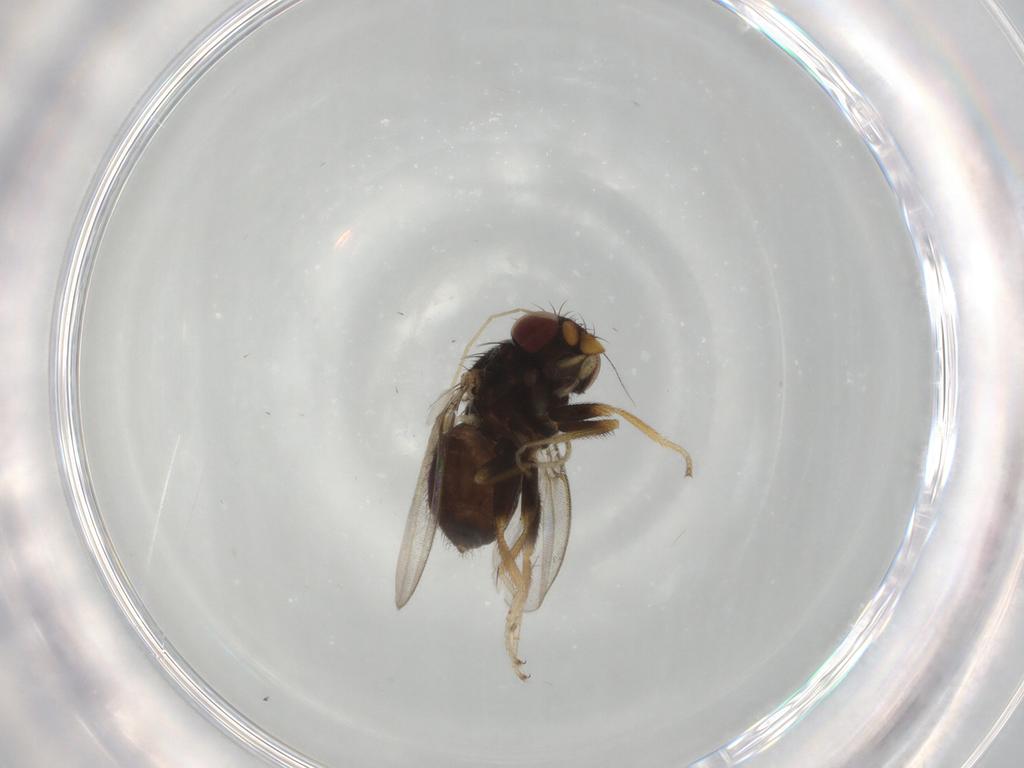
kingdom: Animalia
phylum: Arthropoda
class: Insecta
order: Diptera
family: Milichiidae
